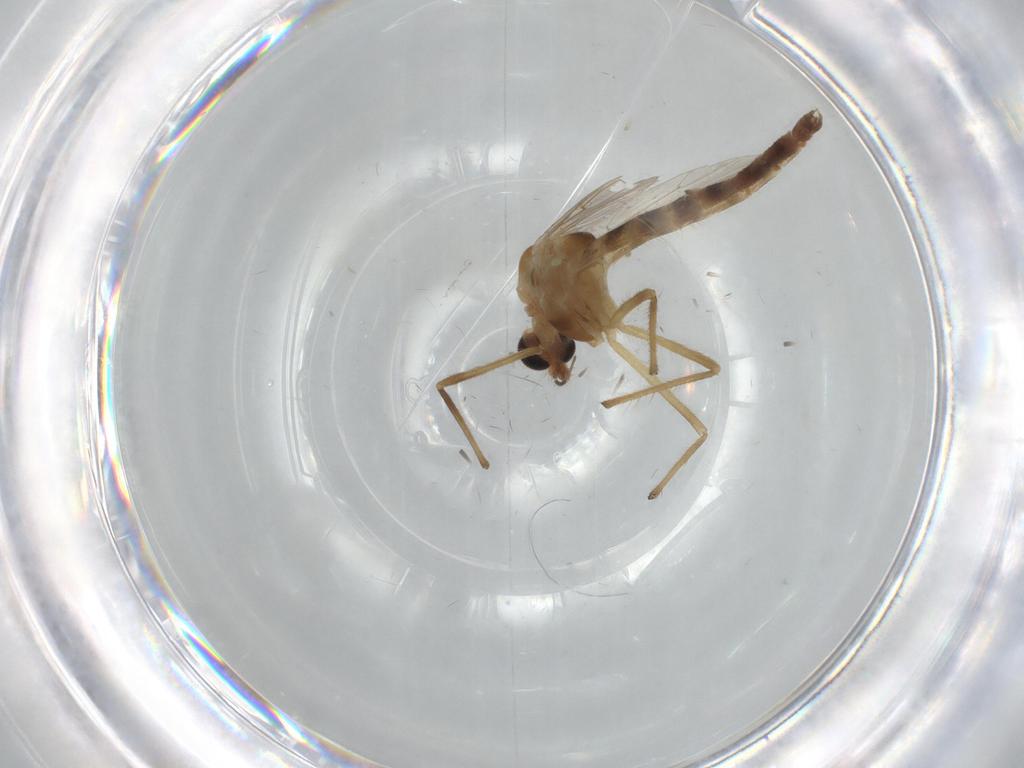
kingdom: Animalia
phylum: Arthropoda
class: Insecta
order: Diptera
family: Chironomidae
